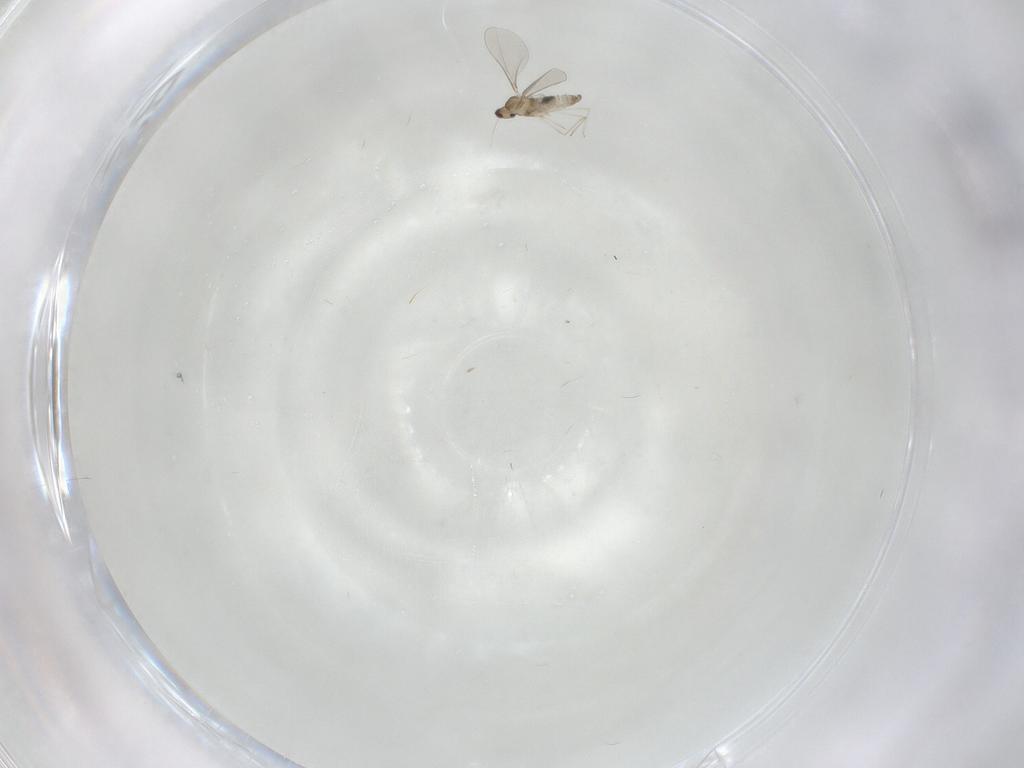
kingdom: Animalia
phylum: Arthropoda
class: Insecta
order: Diptera
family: Cecidomyiidae
